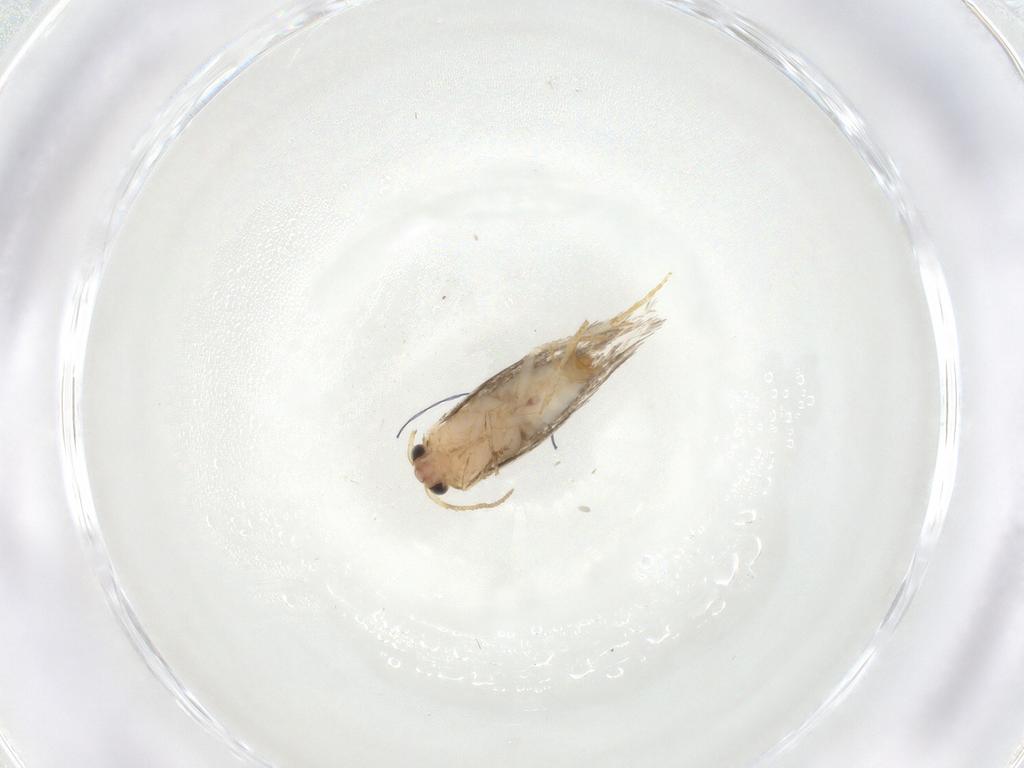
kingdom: Animalia
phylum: Arthropoda
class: Insecta
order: Lepidoptera
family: Nepticulidae
